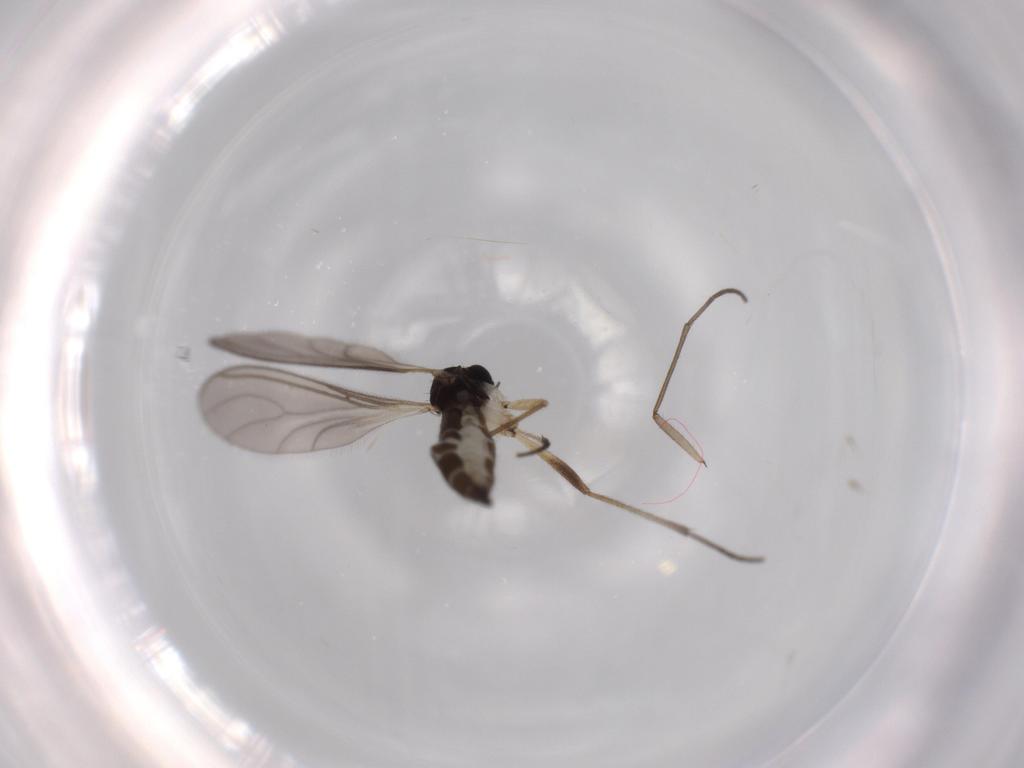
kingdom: Animalia
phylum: Arthropoda
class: Insecta
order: Diptera
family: Sciaridae
